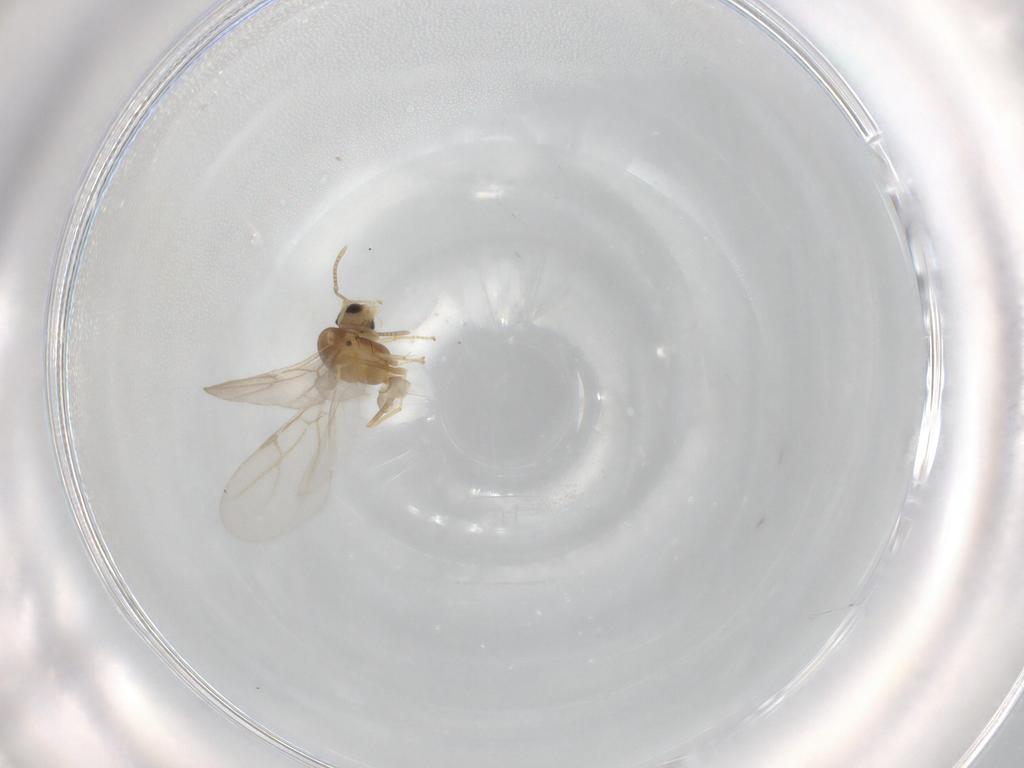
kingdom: Animalia
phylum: Arthropoda
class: Insecta
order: Hymenoptera
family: Formicidae
